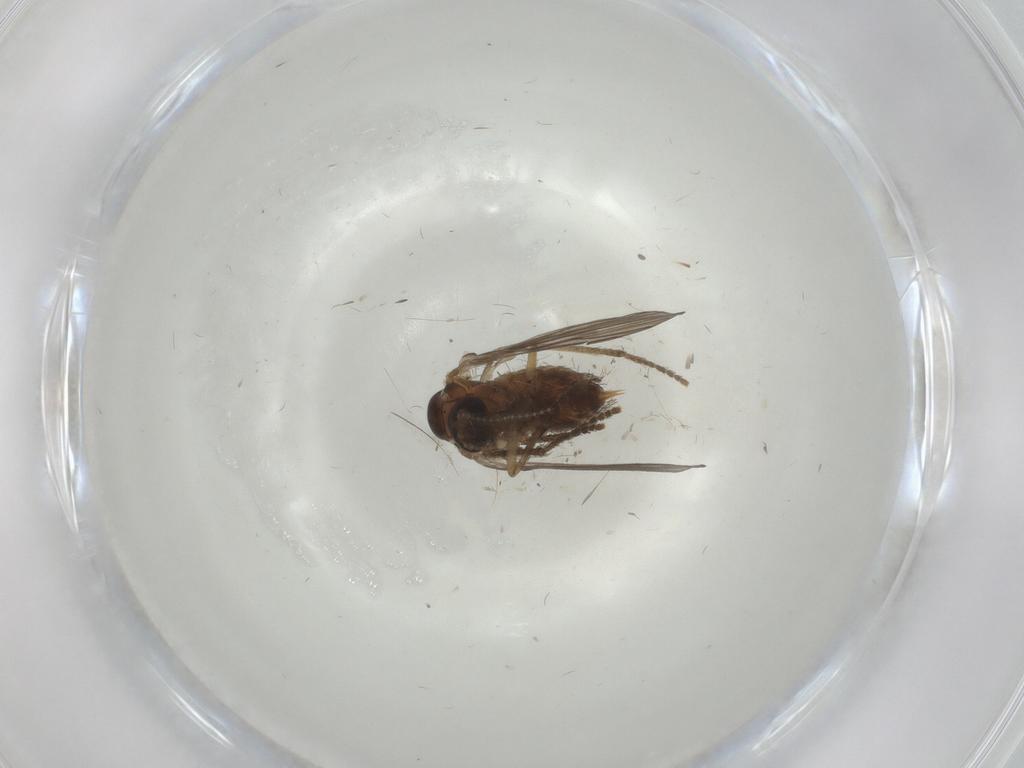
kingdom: Animalia
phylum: Arthropoda
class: Insecta
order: Diptera
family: Psychodidae
